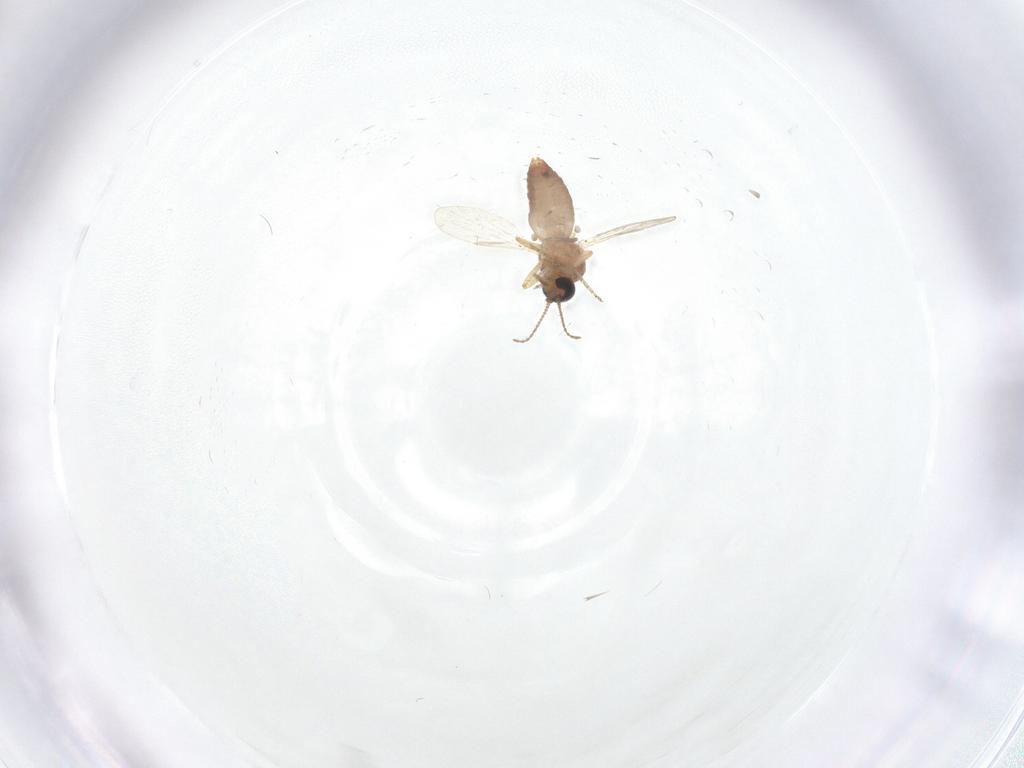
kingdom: Animalia
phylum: Arthropoda
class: Insecta
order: Diptera
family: Ceratopogonidae
